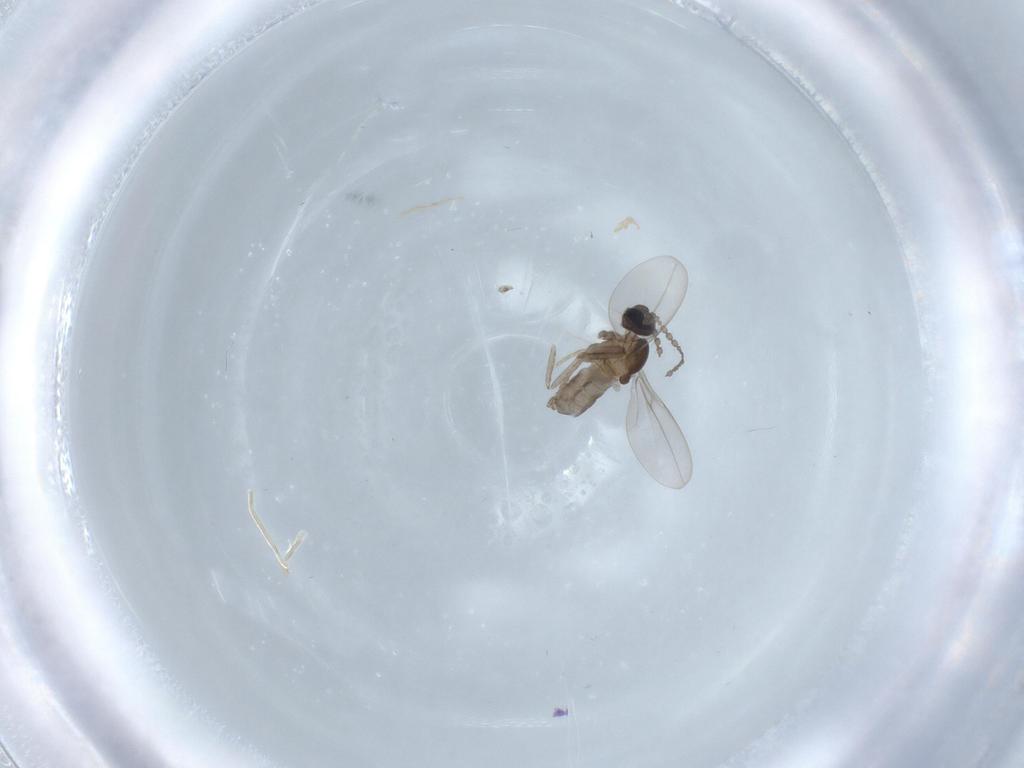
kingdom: Animalia
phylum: Arthropoda
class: Insecta
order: Diptera
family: Cecidomyiidae
